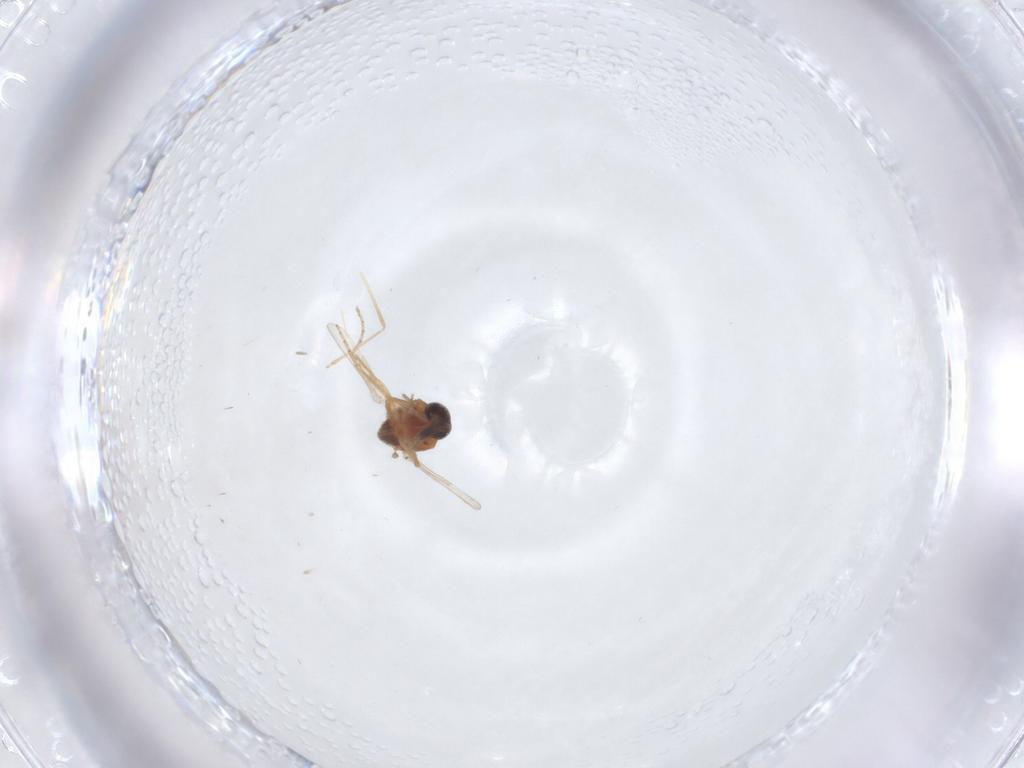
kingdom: Animalia
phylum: Arthropoda
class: Insecta
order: Diptera
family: Ceratopogonidae
